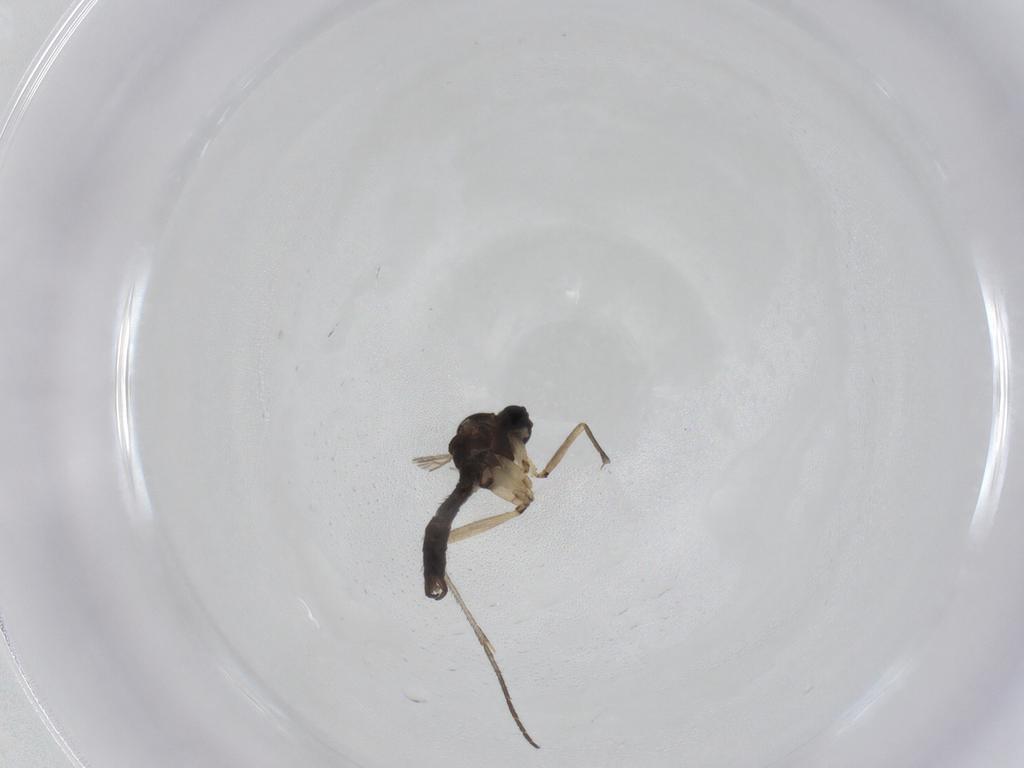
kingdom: Animalia
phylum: Arthropoda
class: Insecta
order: Diptera
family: Sciaridae
